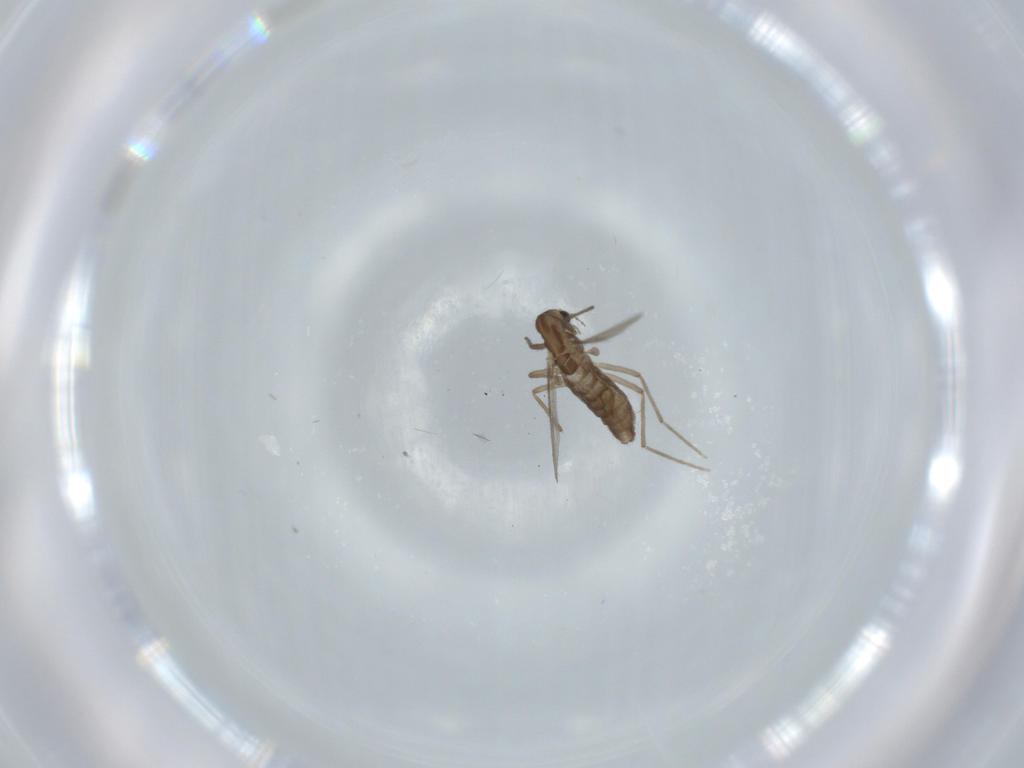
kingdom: Animalia
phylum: Arthropoda
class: Insecta
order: Diptera
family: Chironomidae
